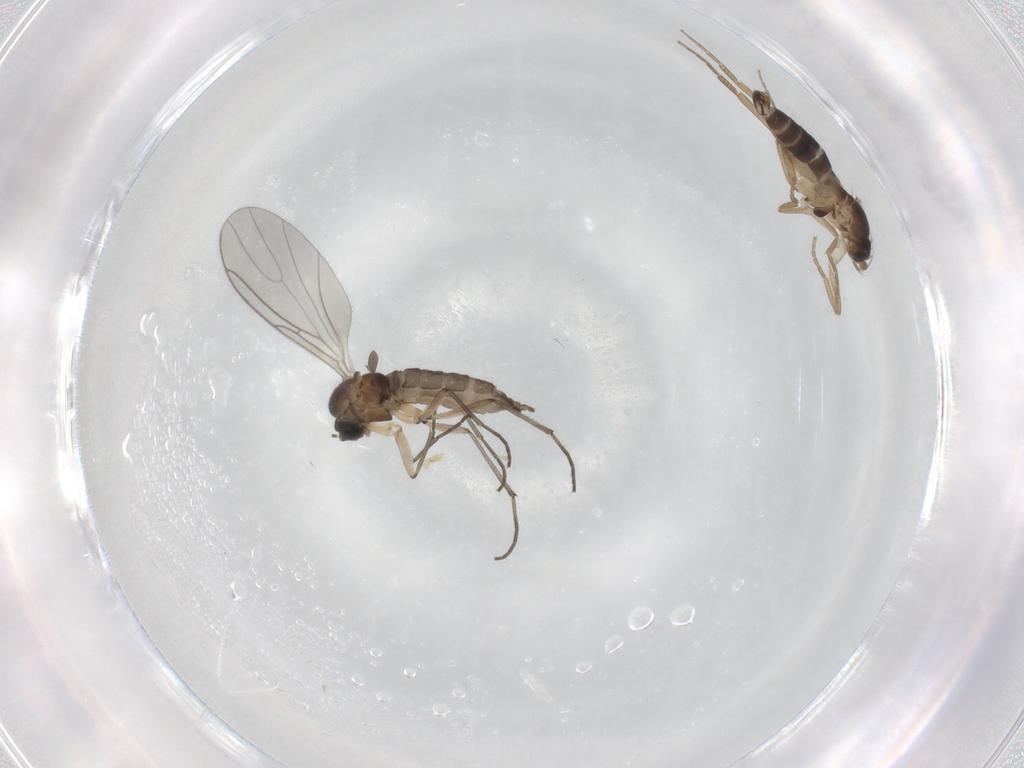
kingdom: Animalia
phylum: Arthropoda
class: Insecta
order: Diptera
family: Sciaridae
